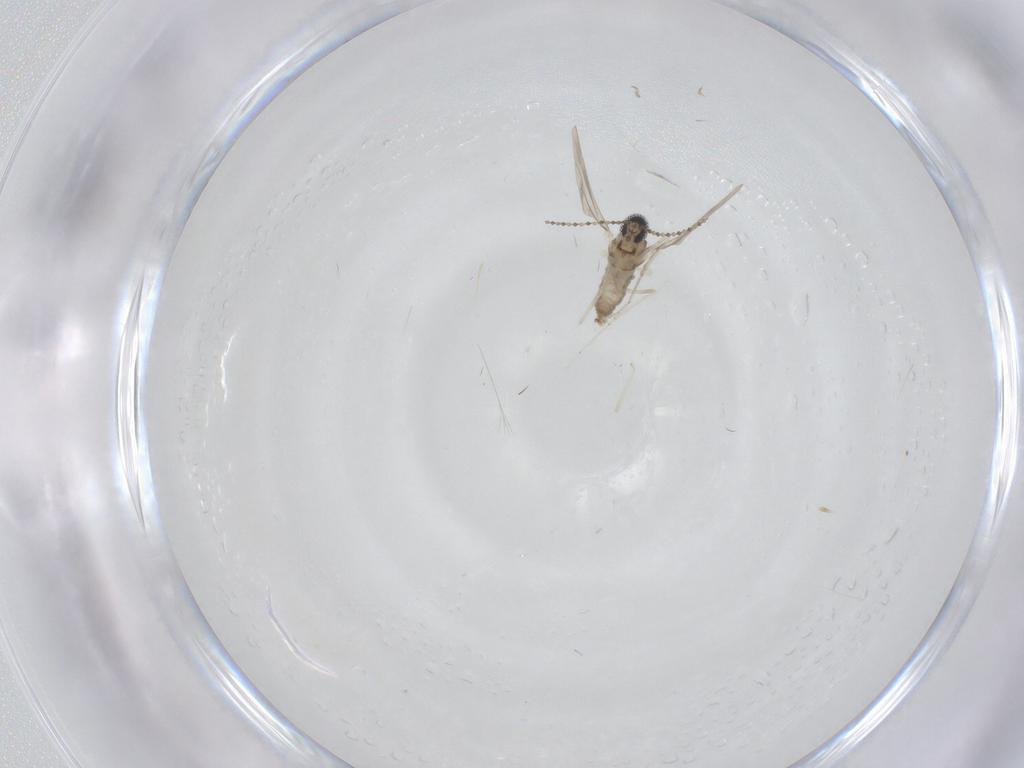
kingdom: Animalia
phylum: Arthropoda
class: Insecta
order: Diptera
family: Cecidomyiidae
